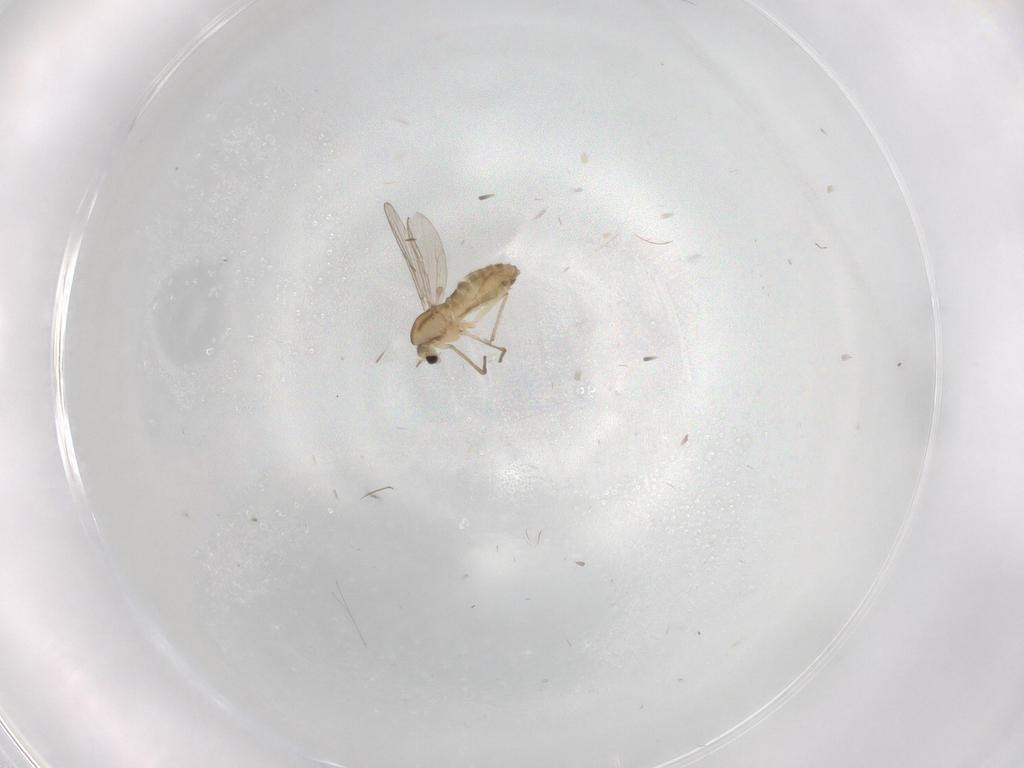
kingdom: Animalia
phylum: Arthropoda
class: Insecta
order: Diptera
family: Chironomidae
